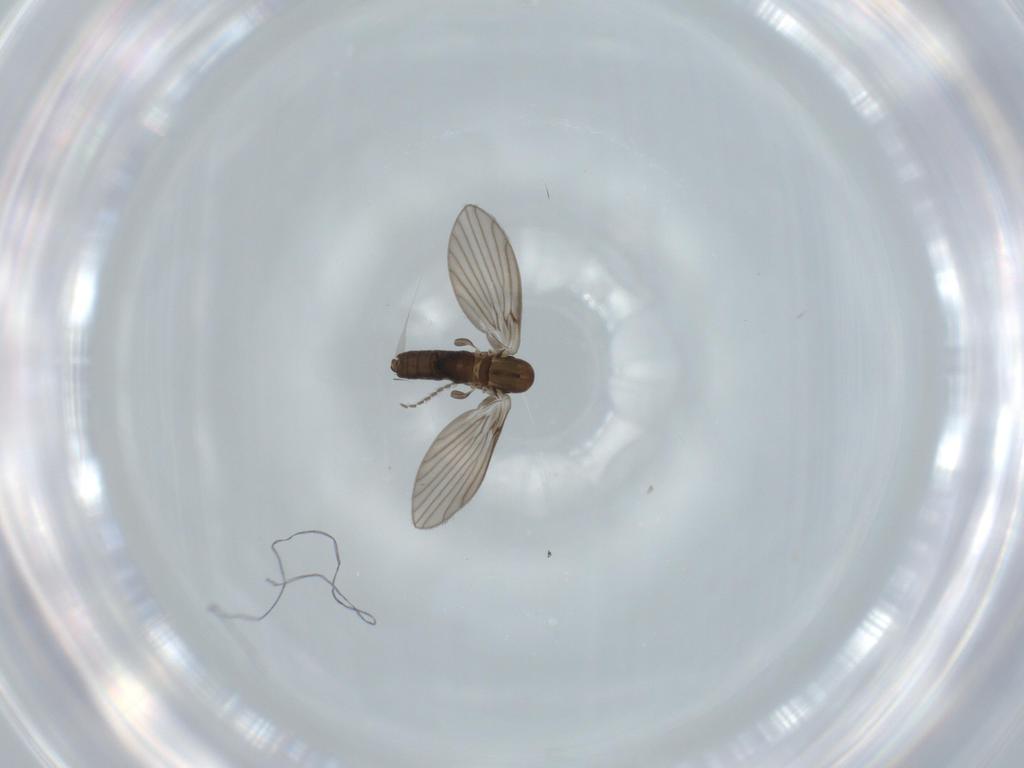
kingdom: Animalia
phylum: Arthropoda
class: Insecta
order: Diptera
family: Psychodidae
